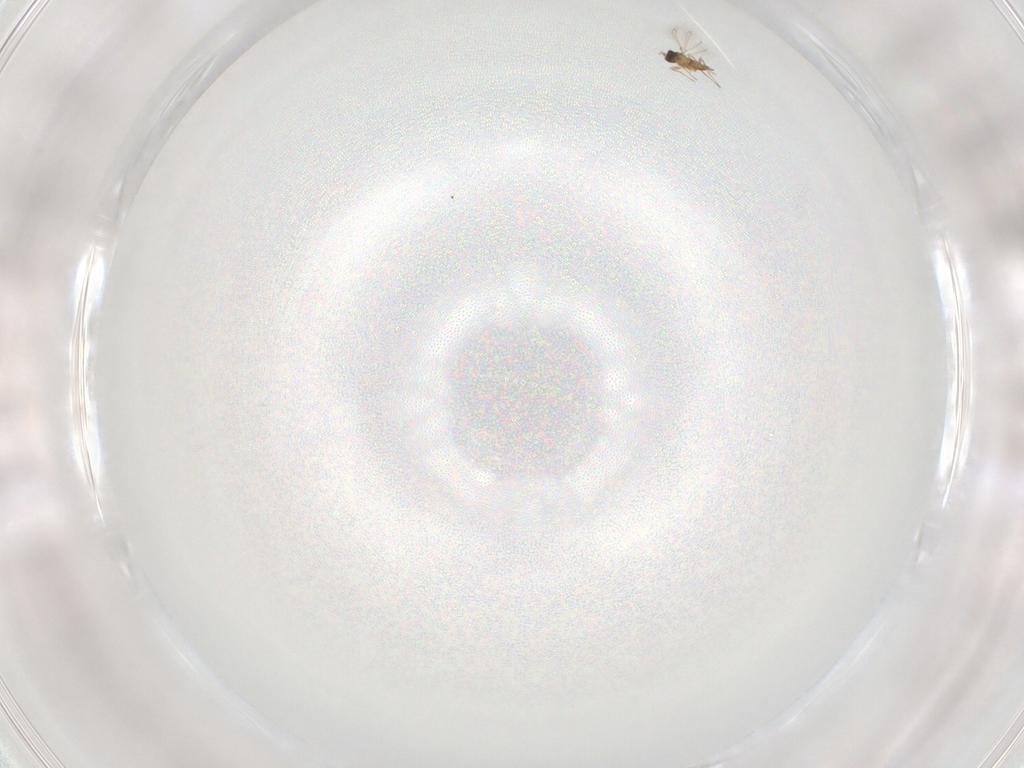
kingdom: Animalia
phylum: Arthropoda
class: Insecta
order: Hymenoptera
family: Mymaridae
